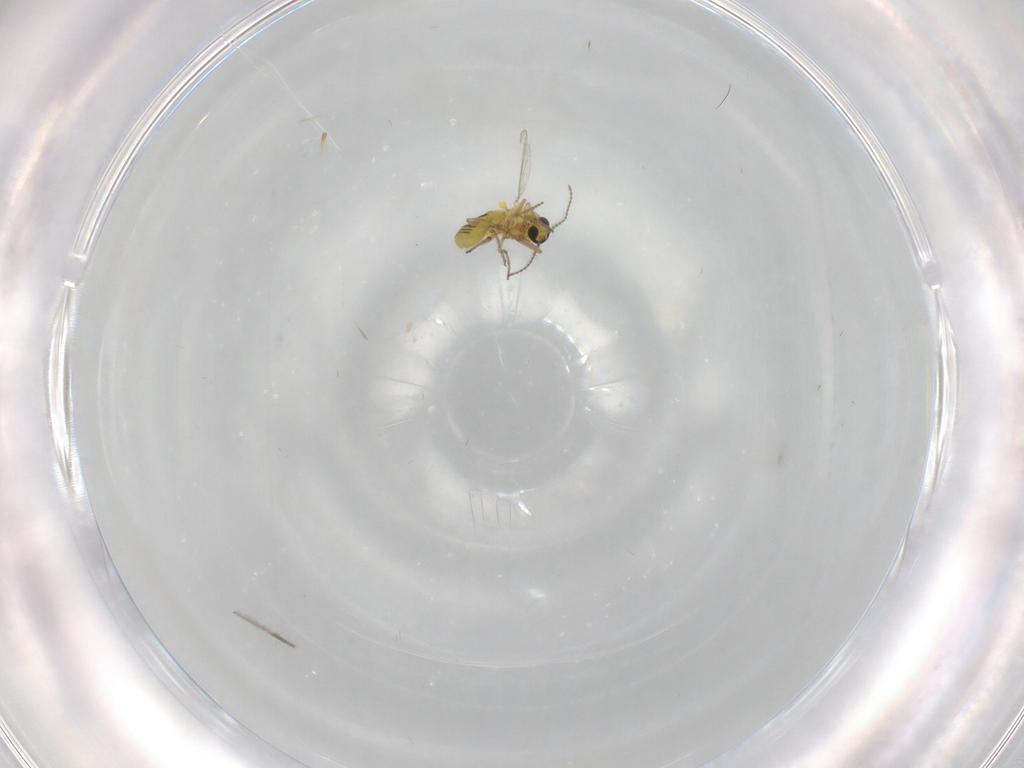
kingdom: Animalia
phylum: Arthropoda
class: Insecta
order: Diptera
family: Ceratopogonidae
